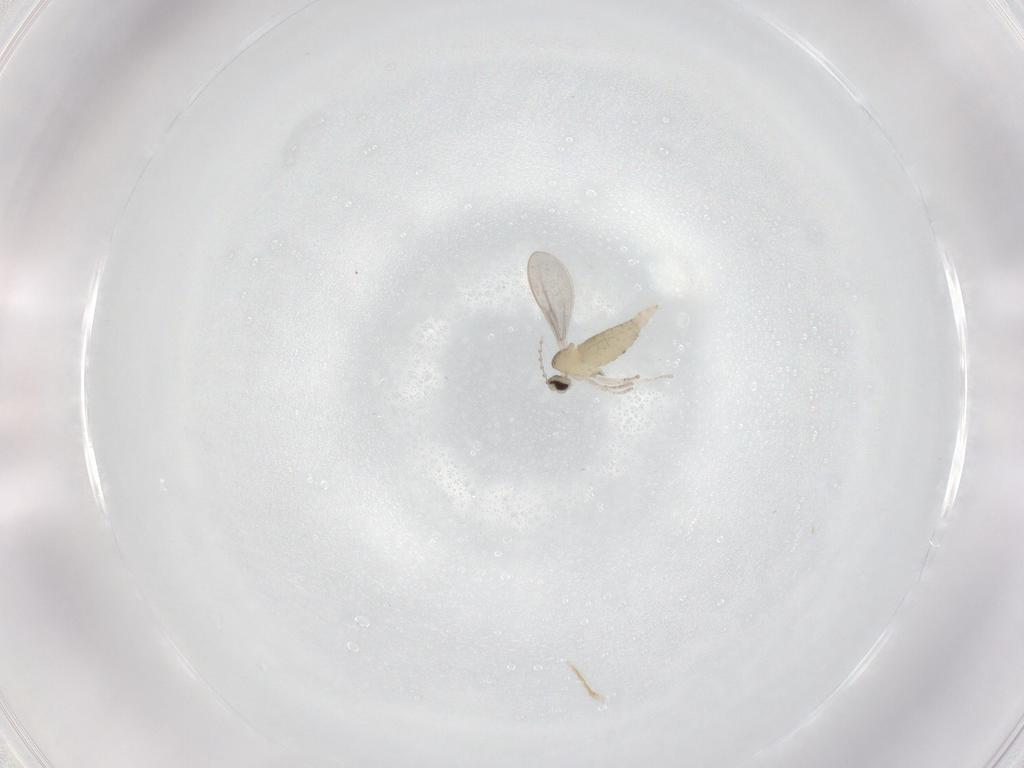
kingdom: Animalia
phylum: Arthropoda
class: Insecta
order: Diptera
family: Cecidomyiidae
